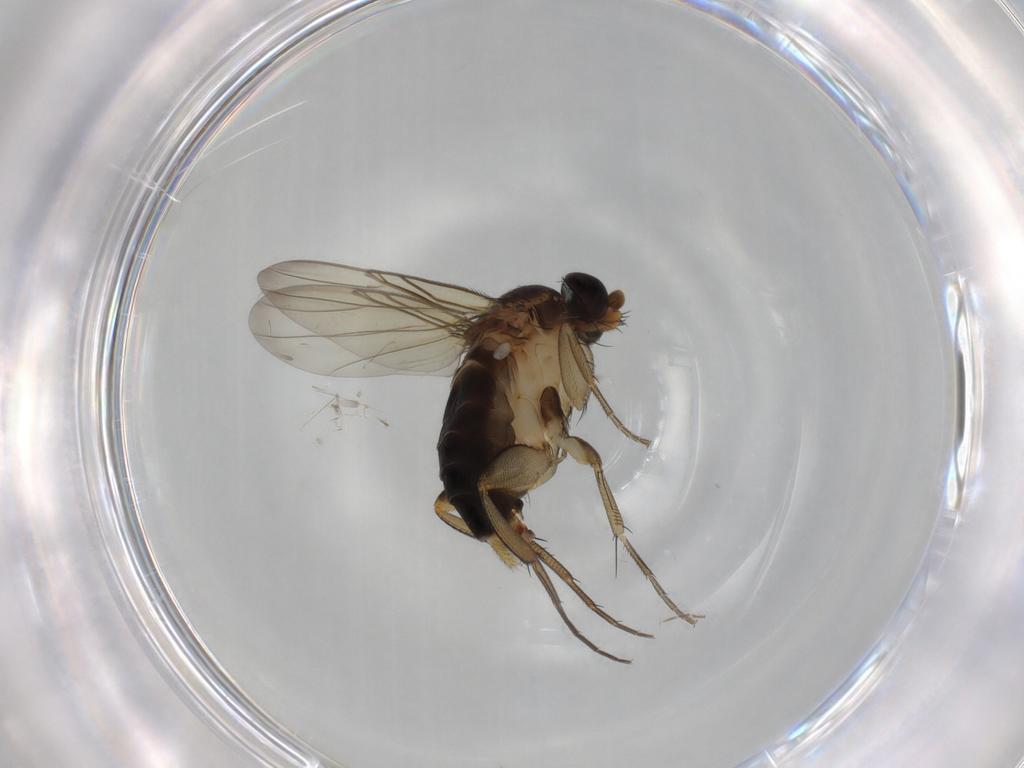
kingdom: Animalia
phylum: Arthropoda
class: Insecta
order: Diptera
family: Phoridae
